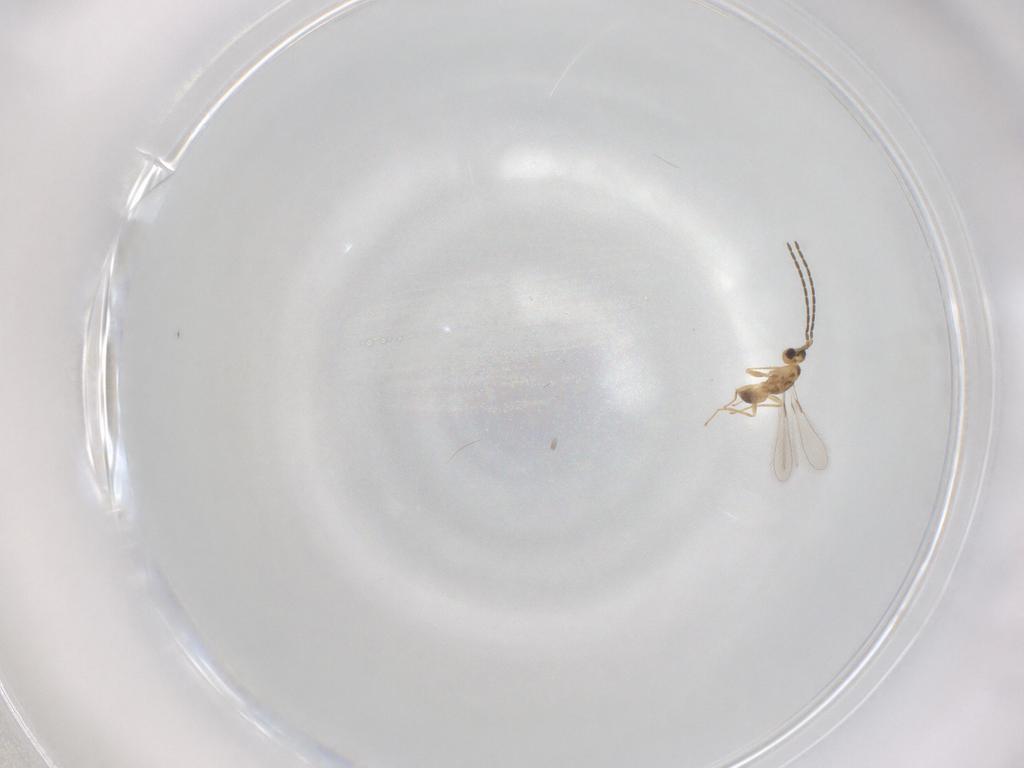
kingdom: Animalia
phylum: Arthropoda
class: Insecta
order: Hymenoptera
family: Mymaridae
